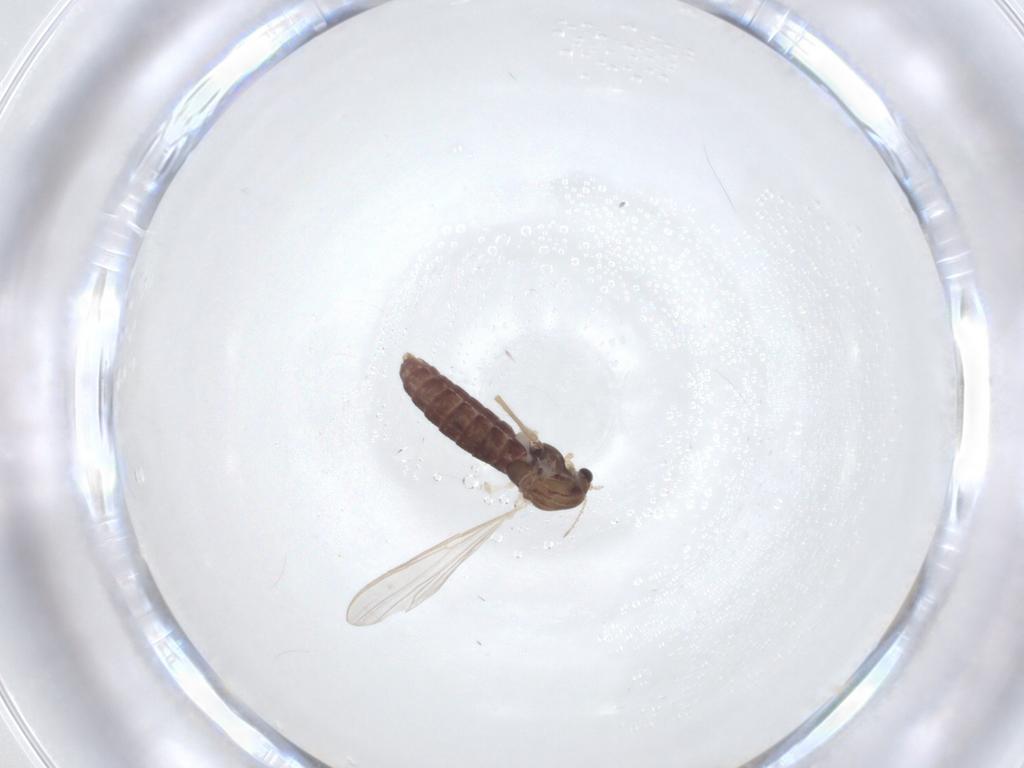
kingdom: Animalia
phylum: Arthropoda
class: Insecta
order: Diptera
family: Chironomidae
